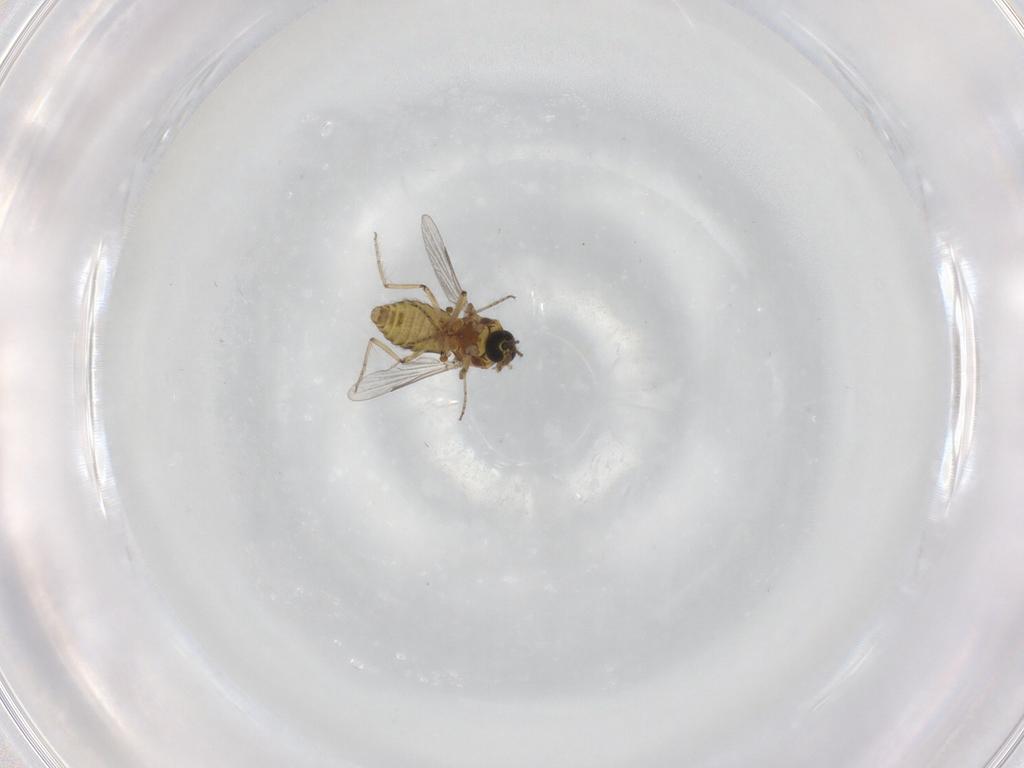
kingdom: Animalia
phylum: Arthropoda
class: Insecta
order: Diptera
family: Ceratopogonidae
